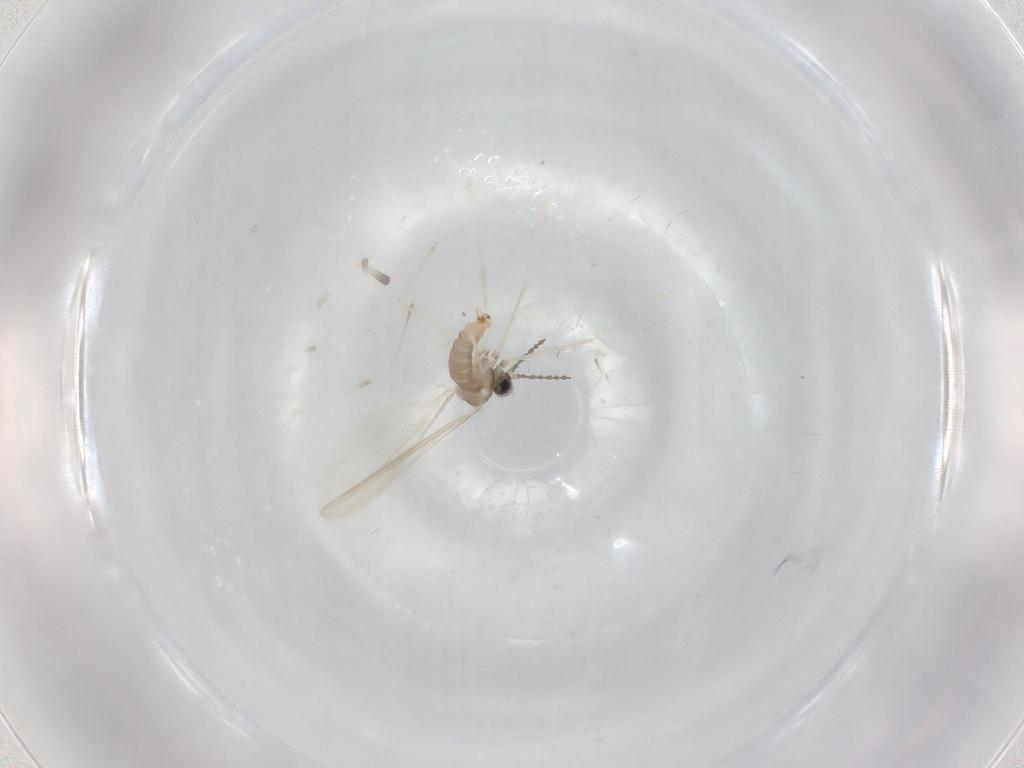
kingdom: Animalia
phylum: Arthropoda
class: Insecta
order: Diptera
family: Cecidomyiidae
